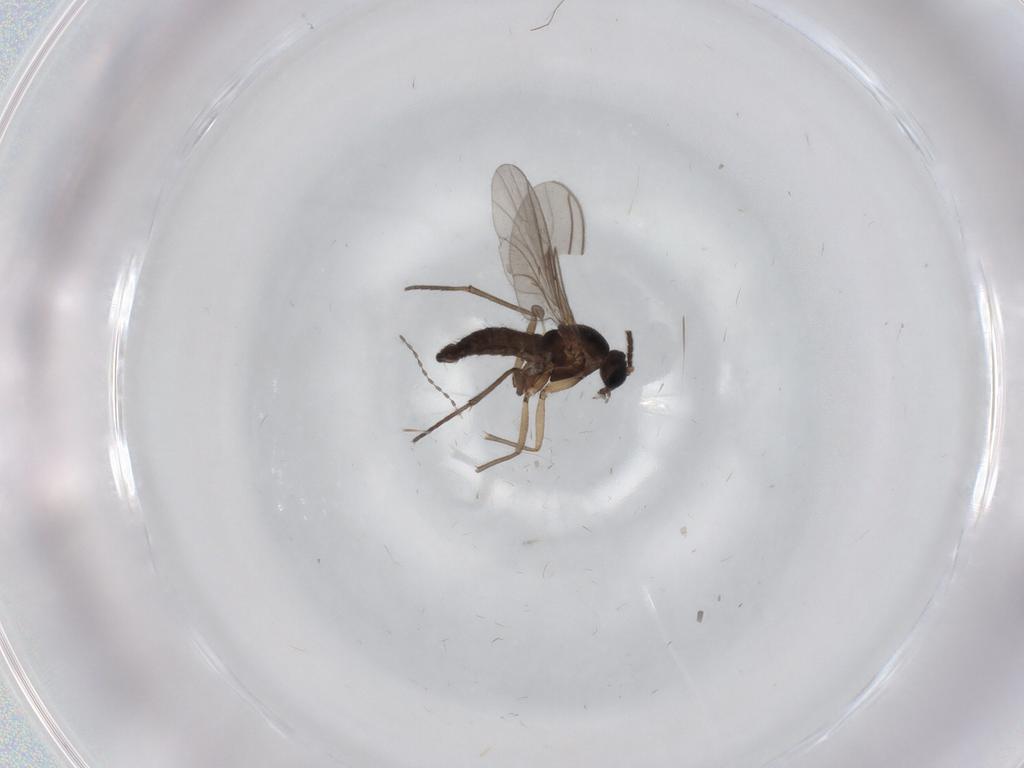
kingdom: Animalia
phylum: Arthropoda
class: Insecta
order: Diptera
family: Sciaridae
